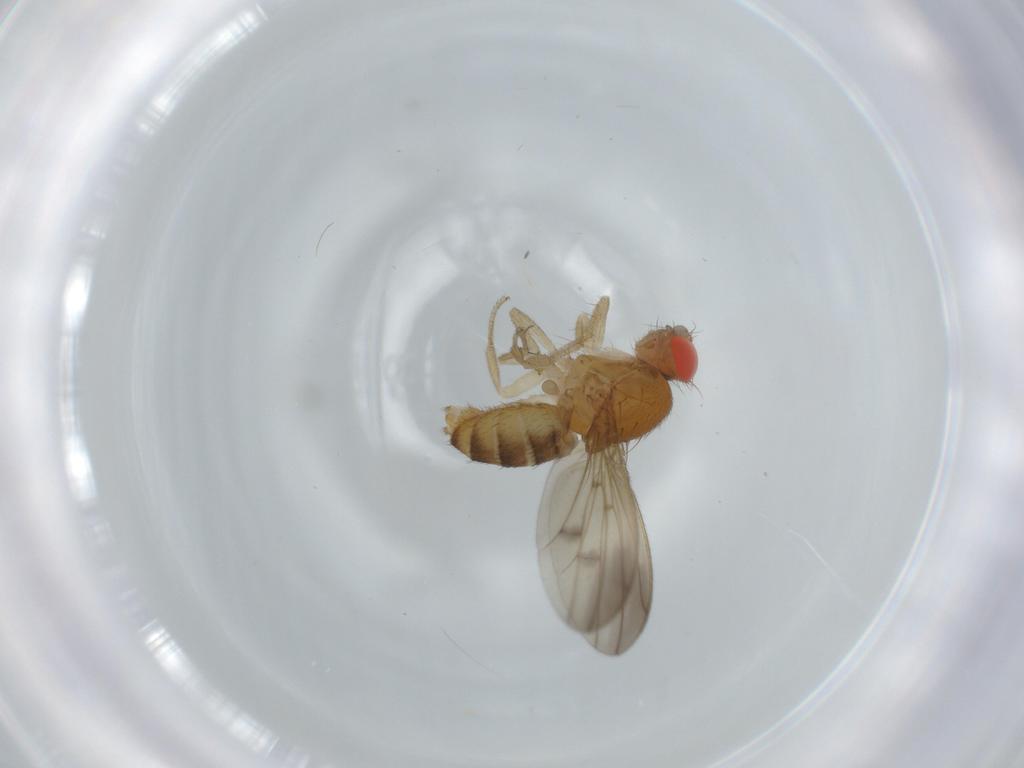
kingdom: Animalia
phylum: Arthropoda
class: Insecta
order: Diptera
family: Drosophilidae
